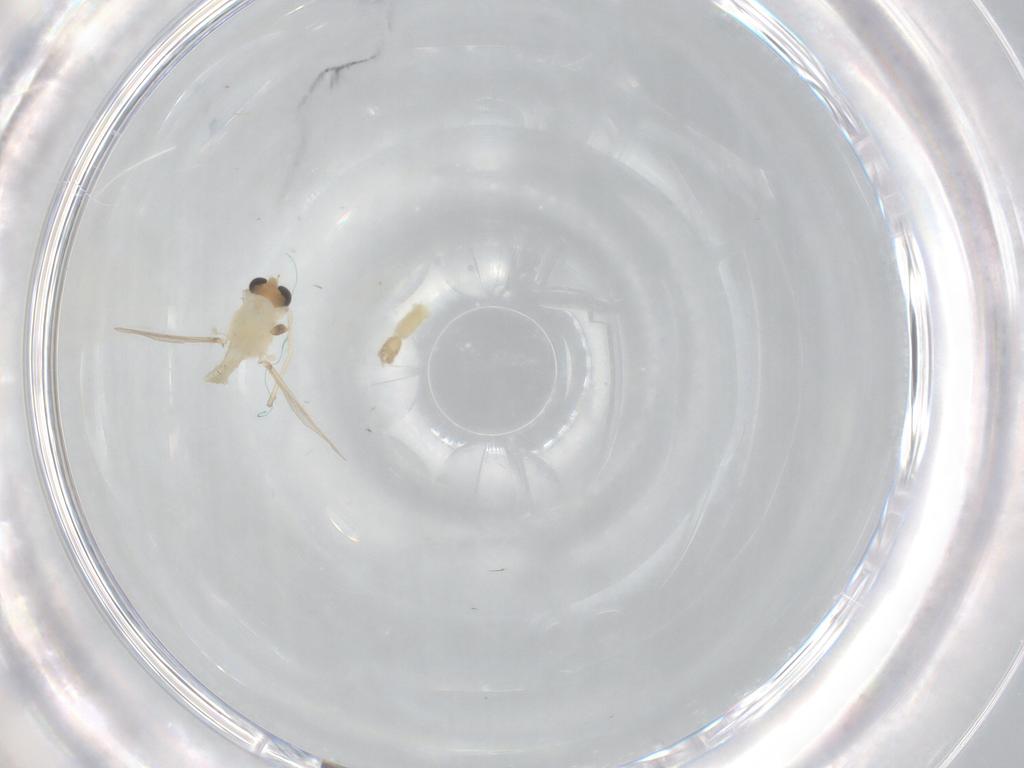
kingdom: Animalia
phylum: Arthropoda
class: Insecta
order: Diptera
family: Chironomidae
